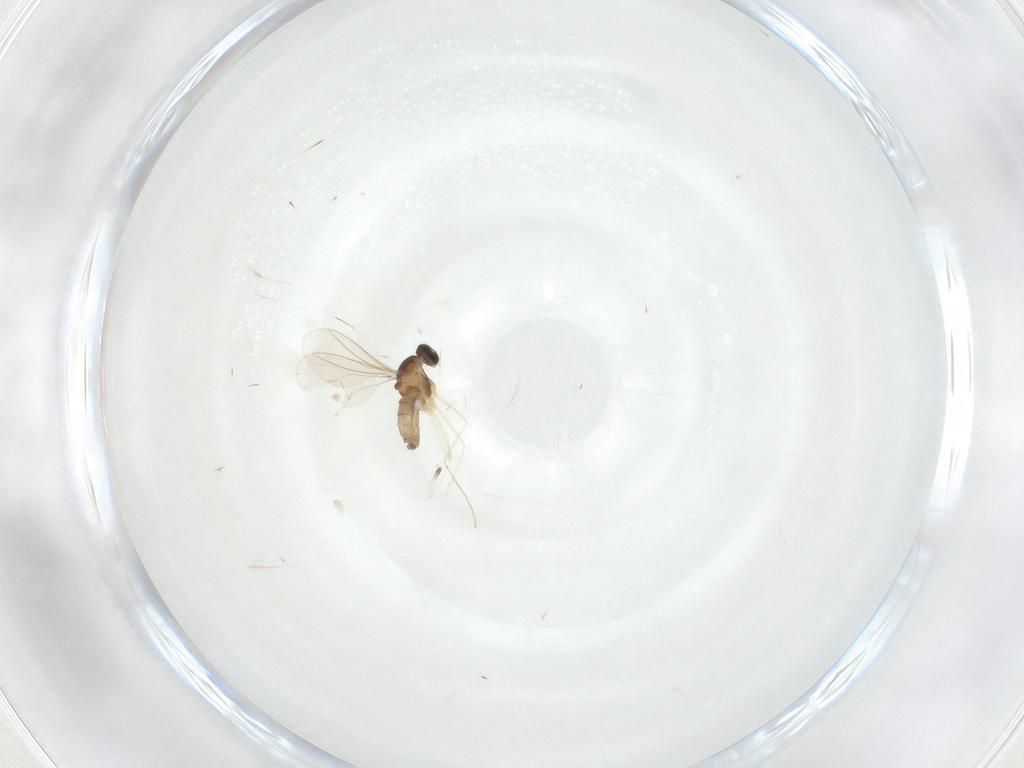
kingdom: Animalia
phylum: Arthropoda
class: Insecta
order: Diptera
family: Cecidomyiidae
